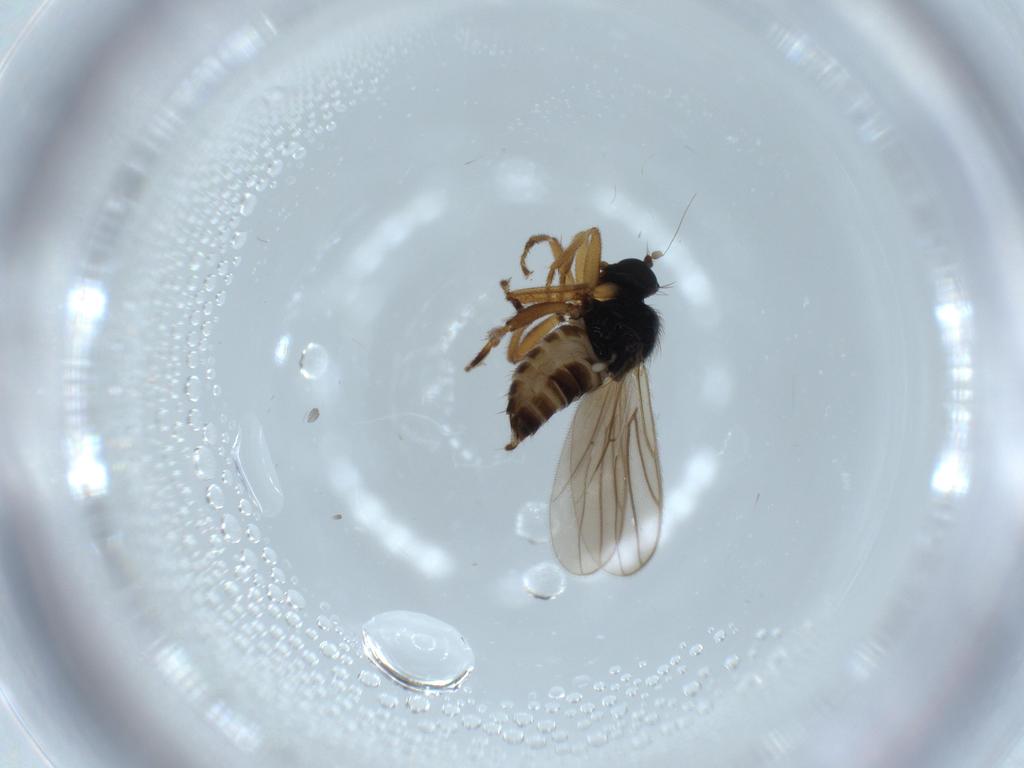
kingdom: Animalia
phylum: Arthropoda
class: Insecta
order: Diptera
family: Hybotidae
